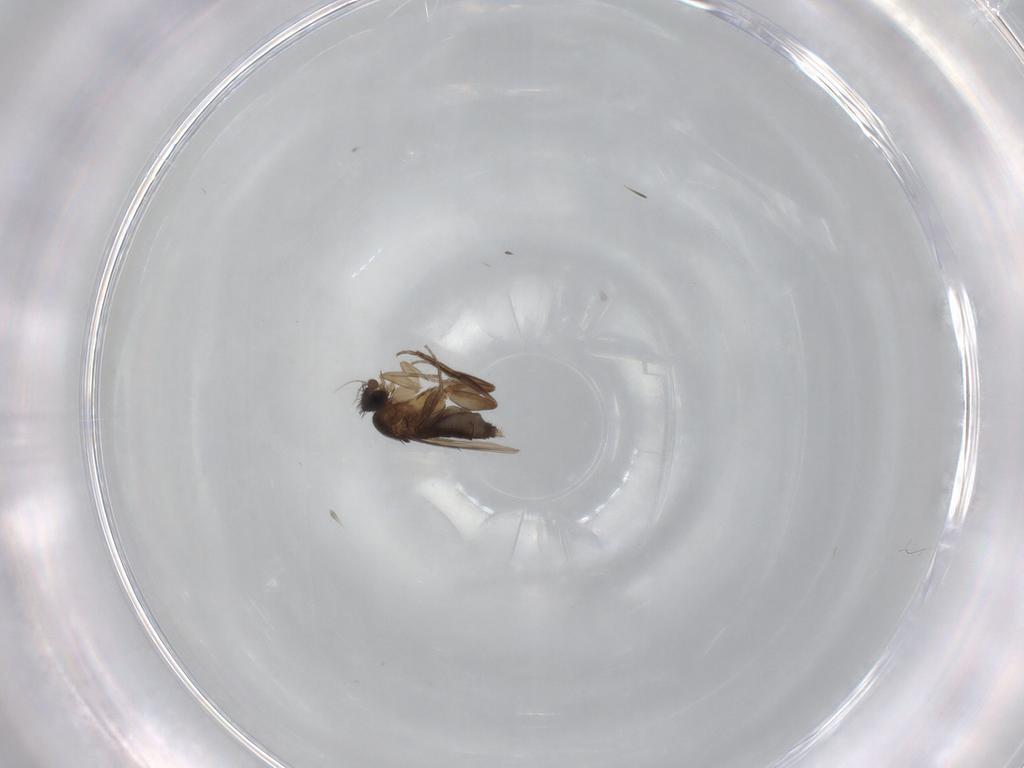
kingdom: Animalia
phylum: Arthropoda
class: Insecta
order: Diptera
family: Phoridae
